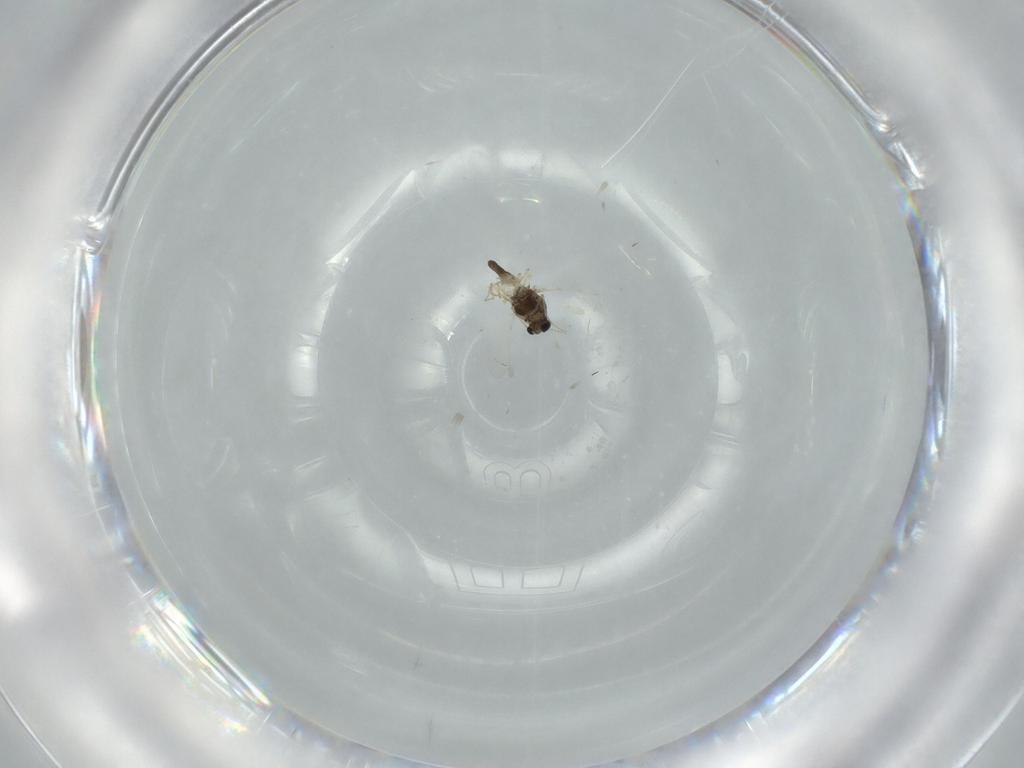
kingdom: Animalia
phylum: Arthropoda
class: Insecta
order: Diptera
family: Chironomidae
